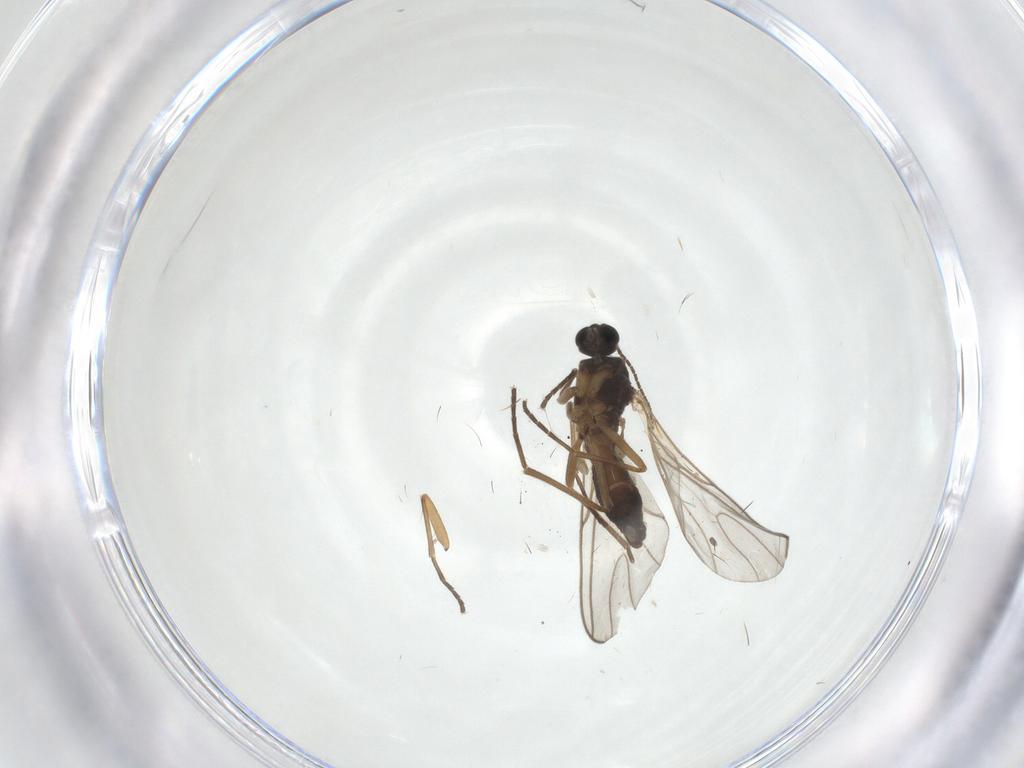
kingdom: Animalia
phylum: Arthropoda
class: Insecta
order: Diptera
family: Sciaridae
